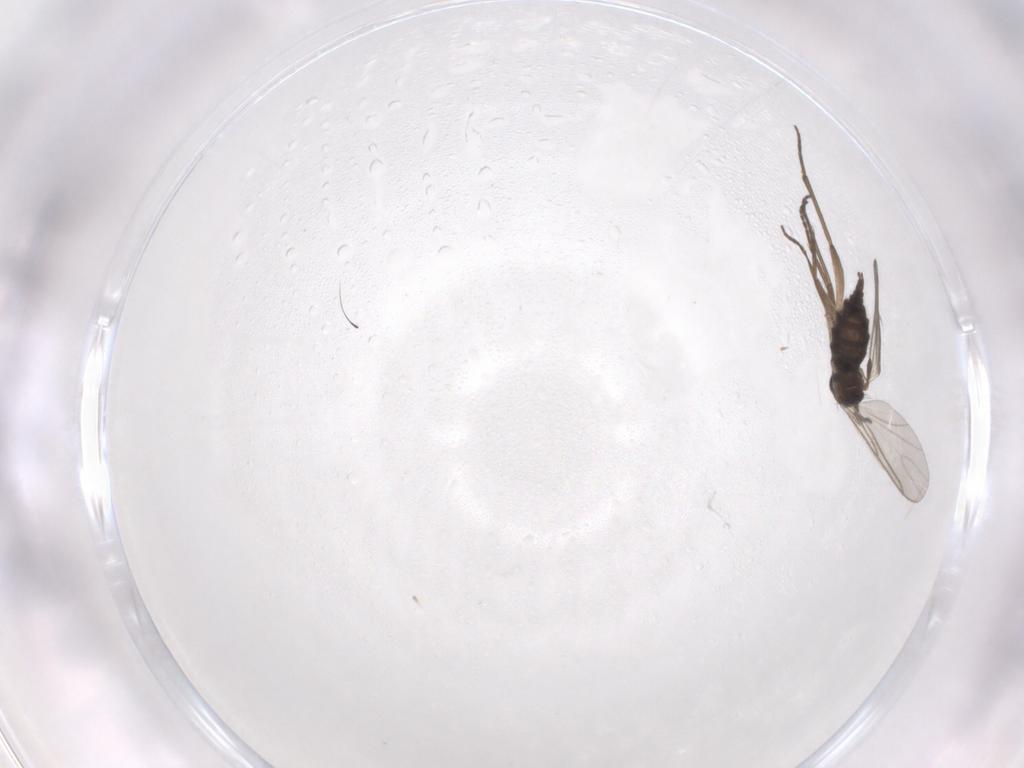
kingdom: Animalia
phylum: Arthropoda
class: Insecta
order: Diptera
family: Sciaridae
